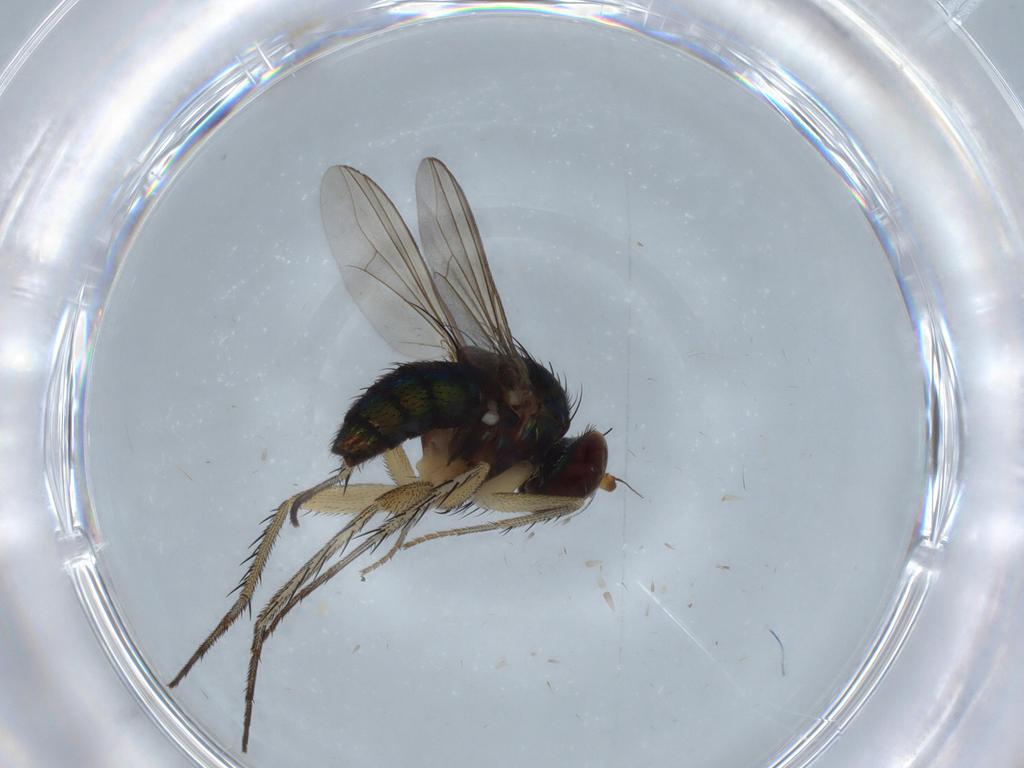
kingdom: Animalia
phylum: Arthropoda
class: Insecta
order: Diptera
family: Dolichopodidae
